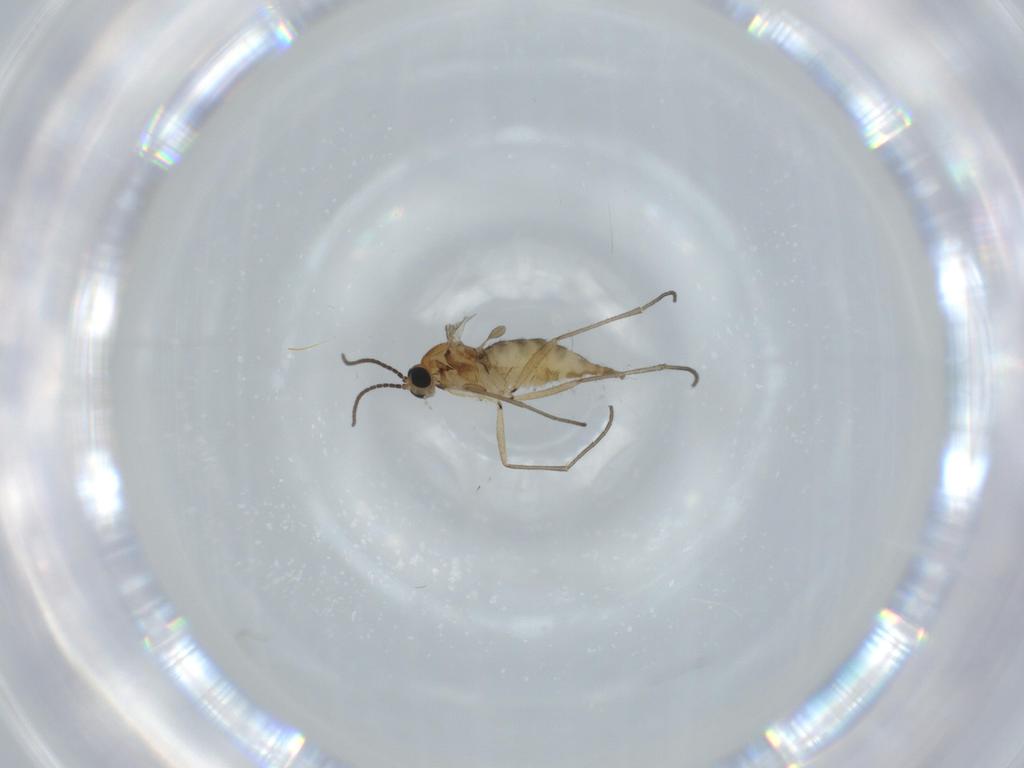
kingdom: Animalia
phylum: Arthropoda
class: Insecta
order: Diptera
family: Sciaridae
